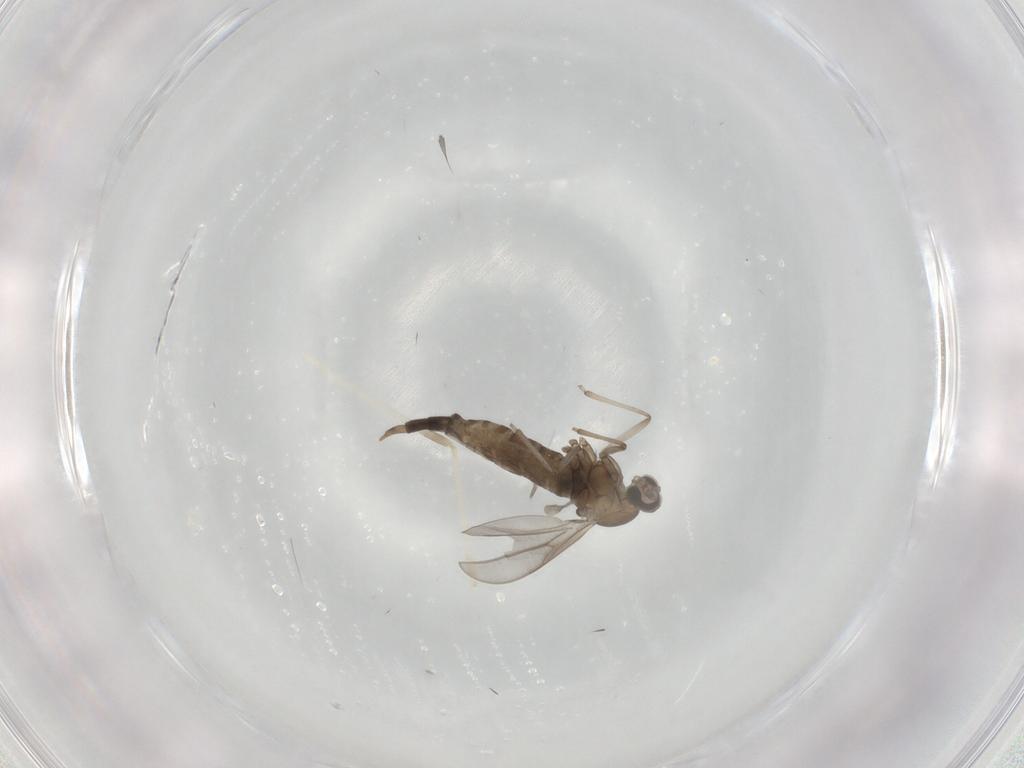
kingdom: Animalia
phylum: Arthropoda
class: Insecta
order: Diptera
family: Cecidomyiidae
